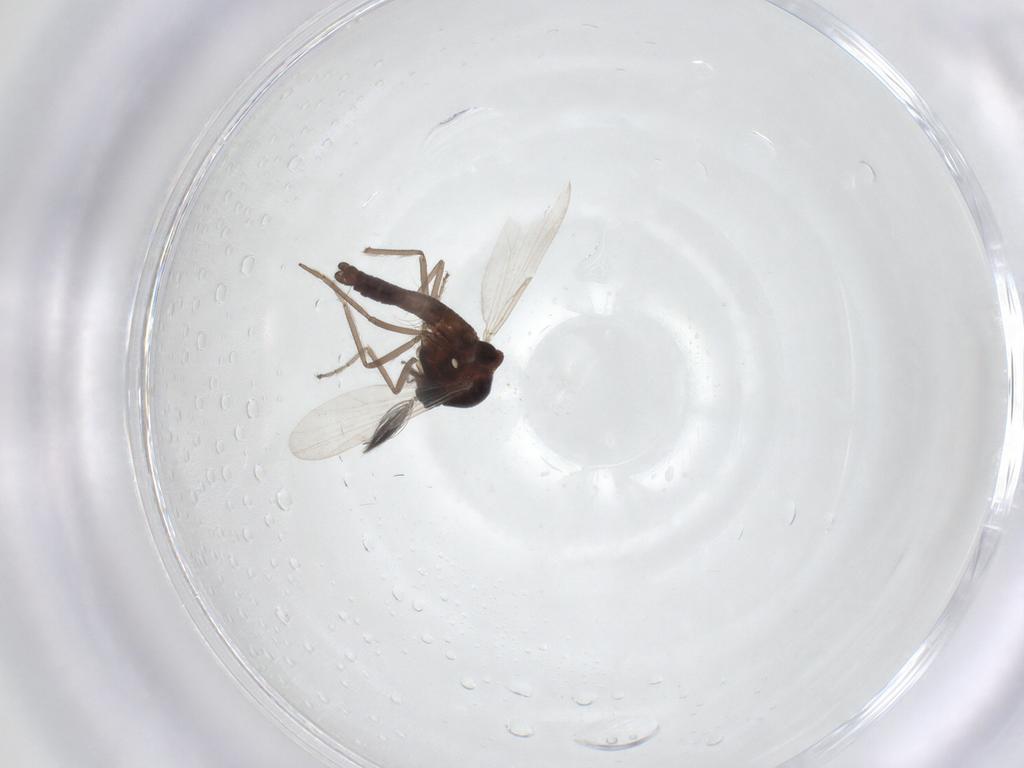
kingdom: Animalia
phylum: Arthropoda
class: Insecta
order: Diptera
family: Ceratopogonidae
